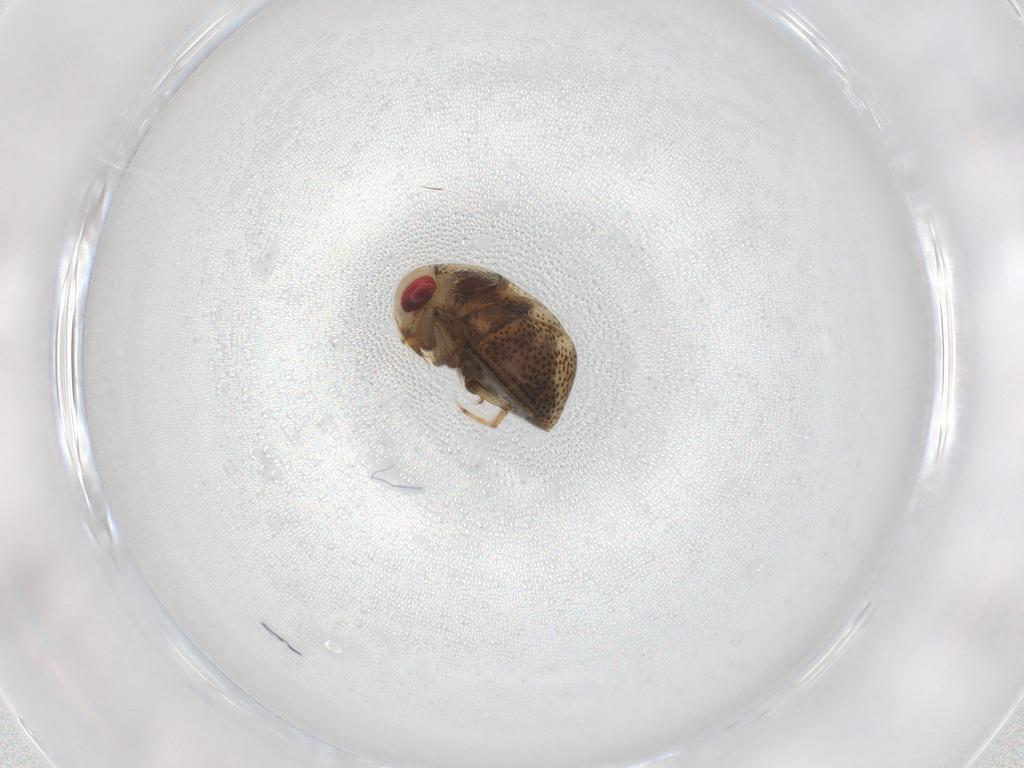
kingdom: Animalia
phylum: Arthropoda
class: Insecta
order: Hemiptera
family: Pleidae
